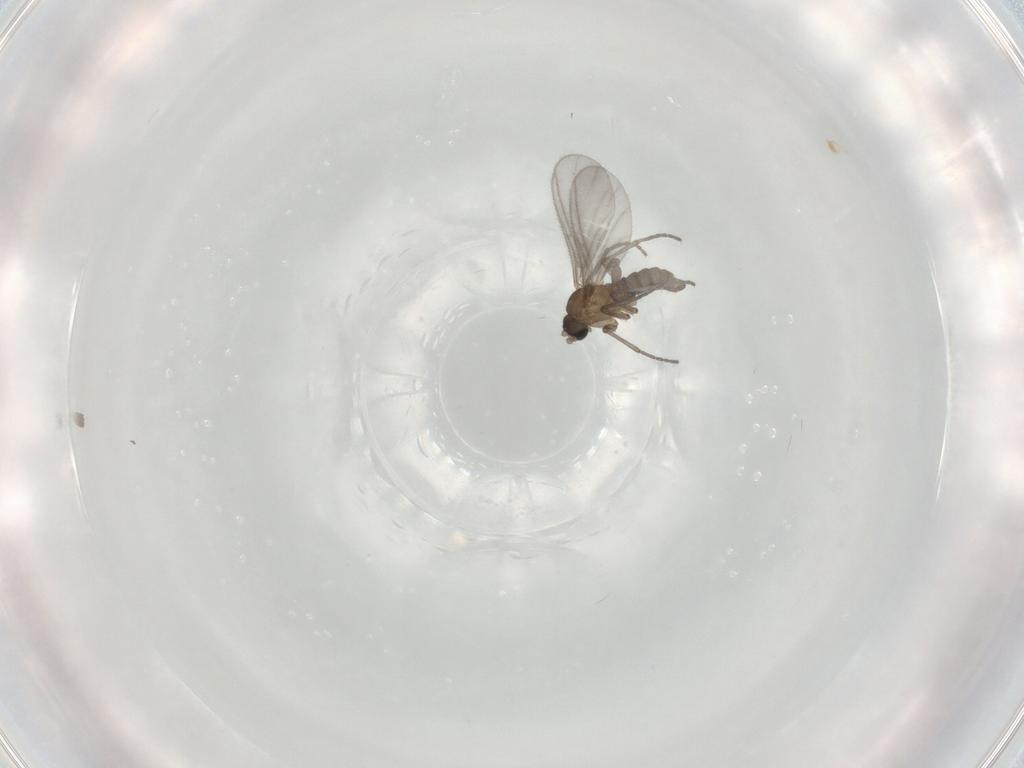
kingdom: Animalia
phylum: Arthropoda
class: Insecta
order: Diptera
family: Sciaridae
